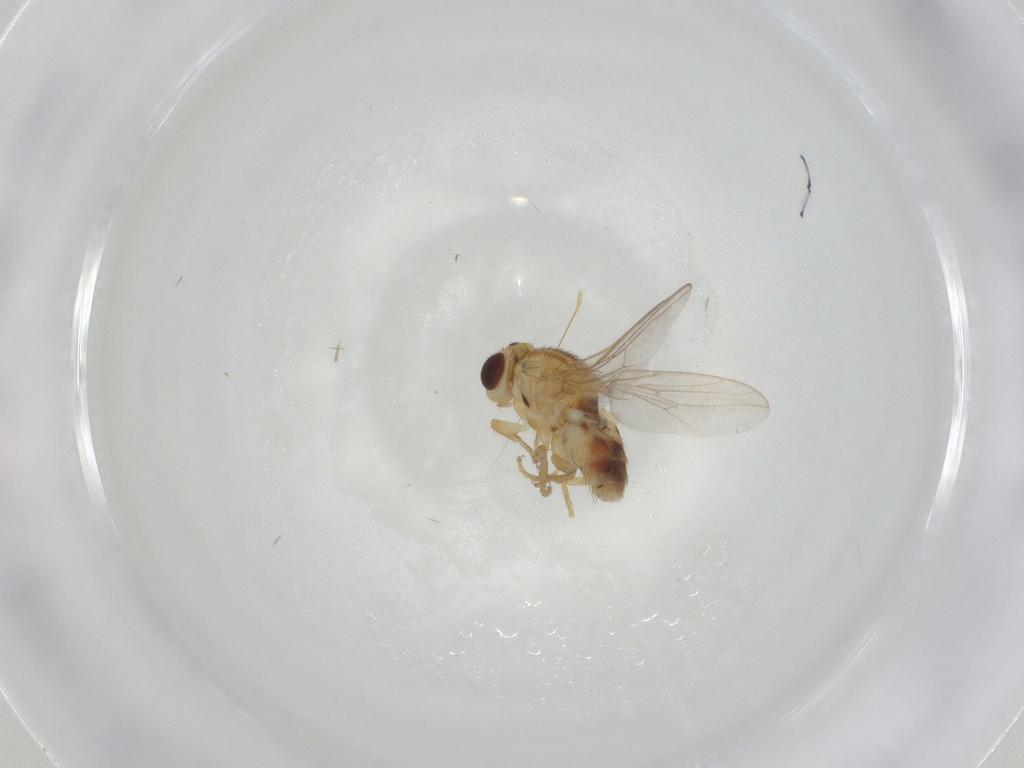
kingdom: Animalia
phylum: Arthropoda
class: Insecta
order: Diptera
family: Chloropidae
